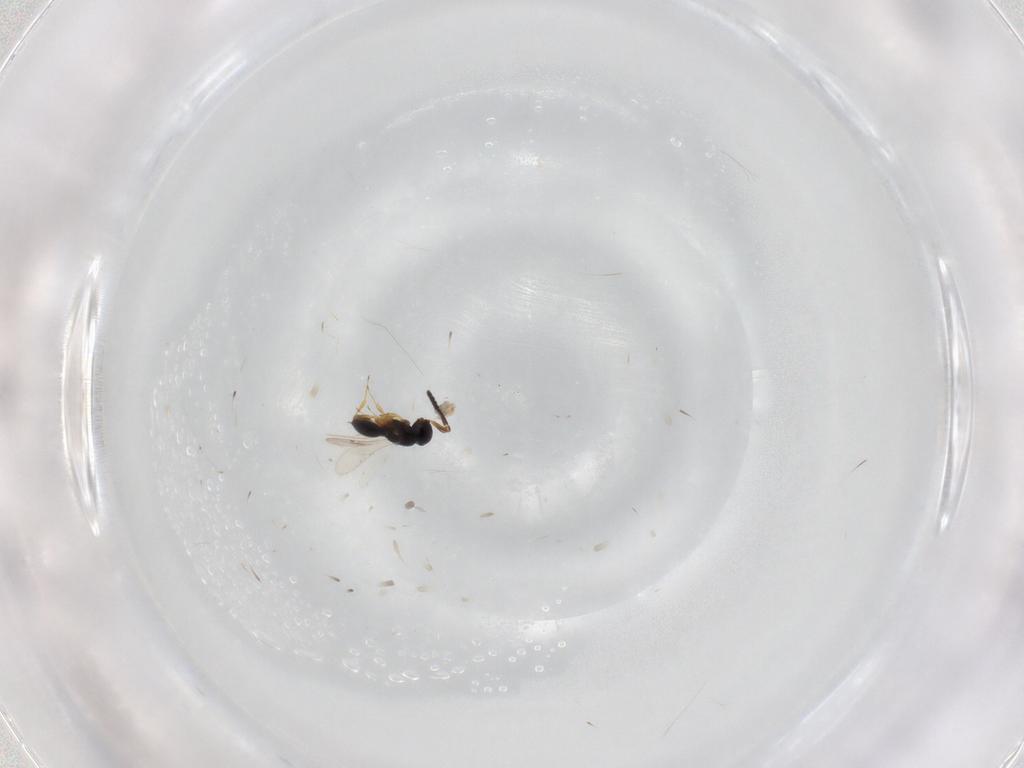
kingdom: Animalia
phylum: Arthropoda
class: Insecta
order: Hymenoptera
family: Scelionidae
